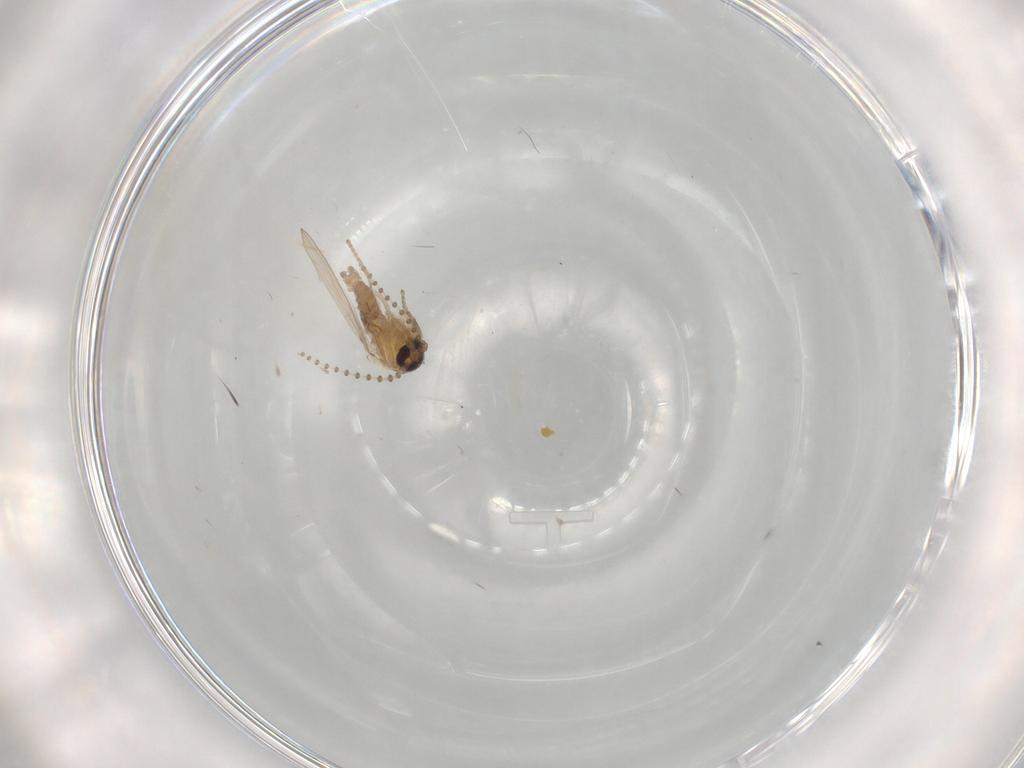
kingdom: Animalia
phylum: Arthropoda
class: Insecta
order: Diptera
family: Psychodidae
